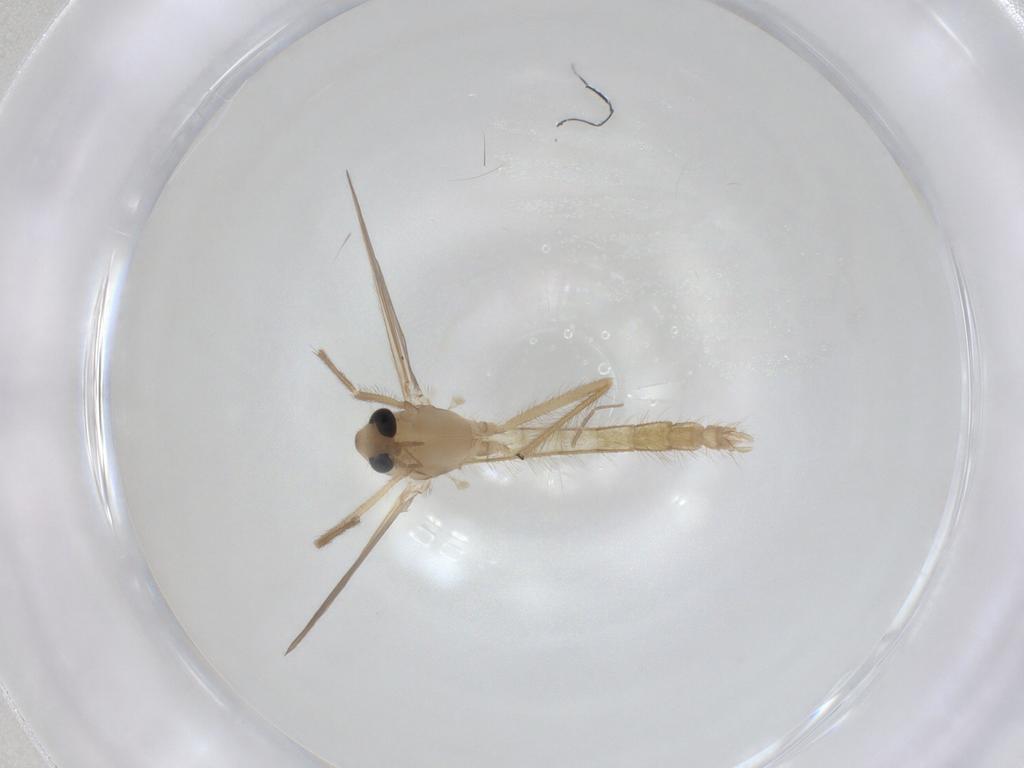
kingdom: Animalia
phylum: Arthropoda
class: Insecta
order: Diptera
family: Chironomidae
